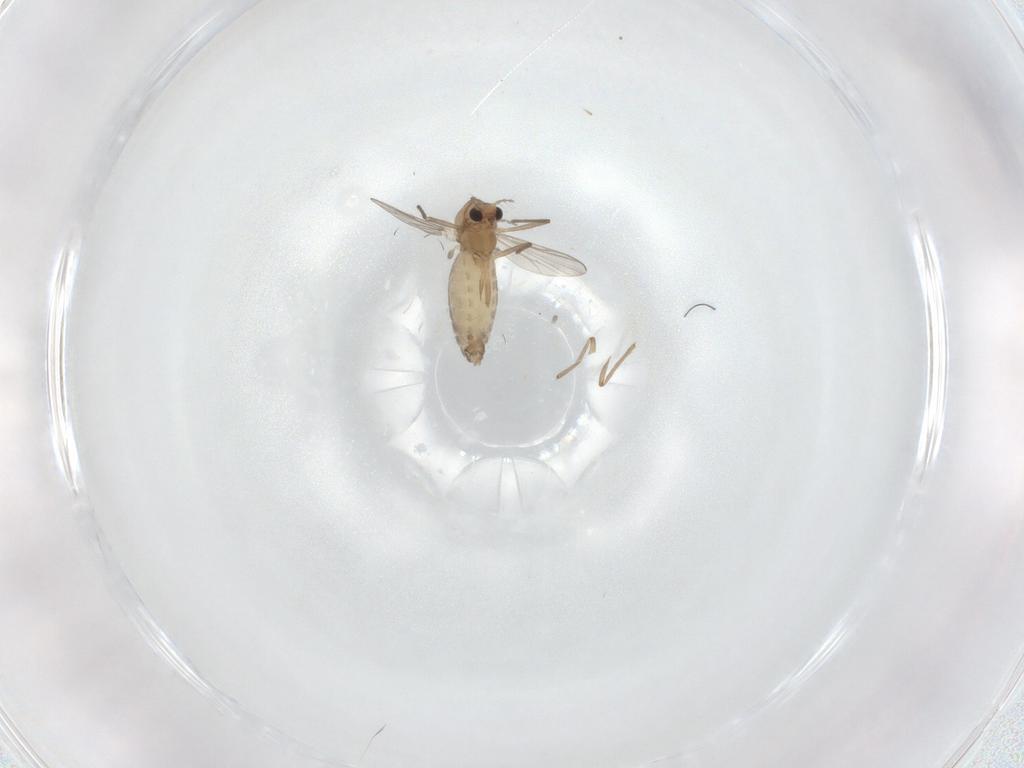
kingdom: Animalia
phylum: Arthropoda
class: Insecta
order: Diptera
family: Chironomidae
